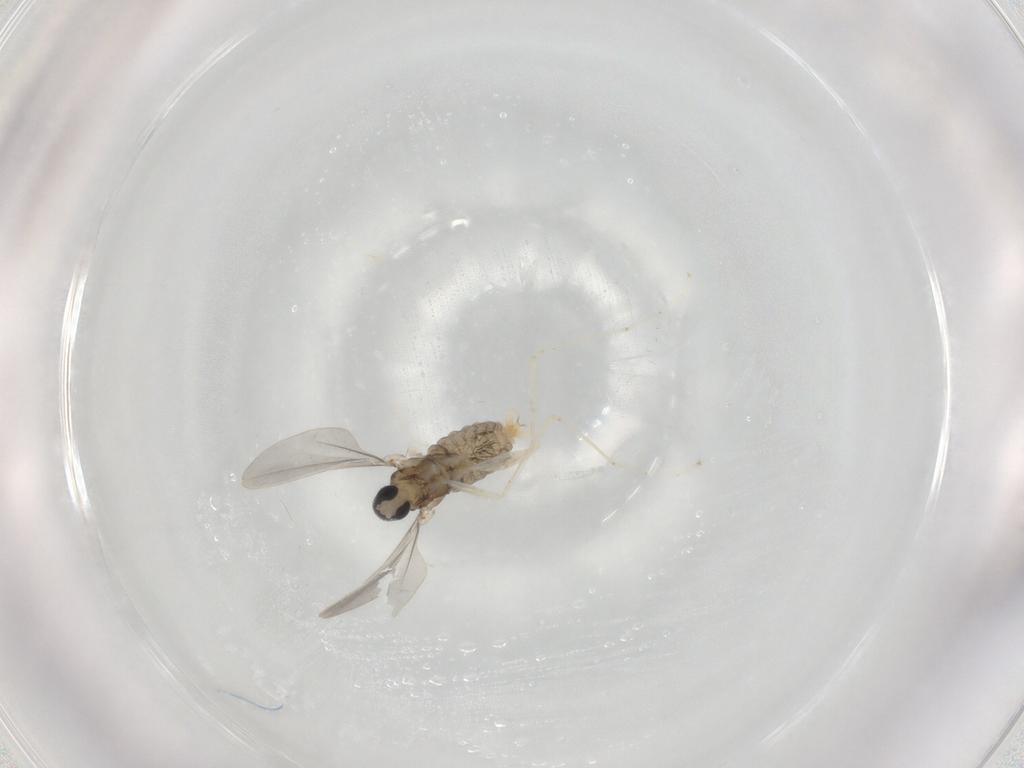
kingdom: Animalia
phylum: Arthropoda
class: Insecta
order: Diptera
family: Cecidomyiidae
